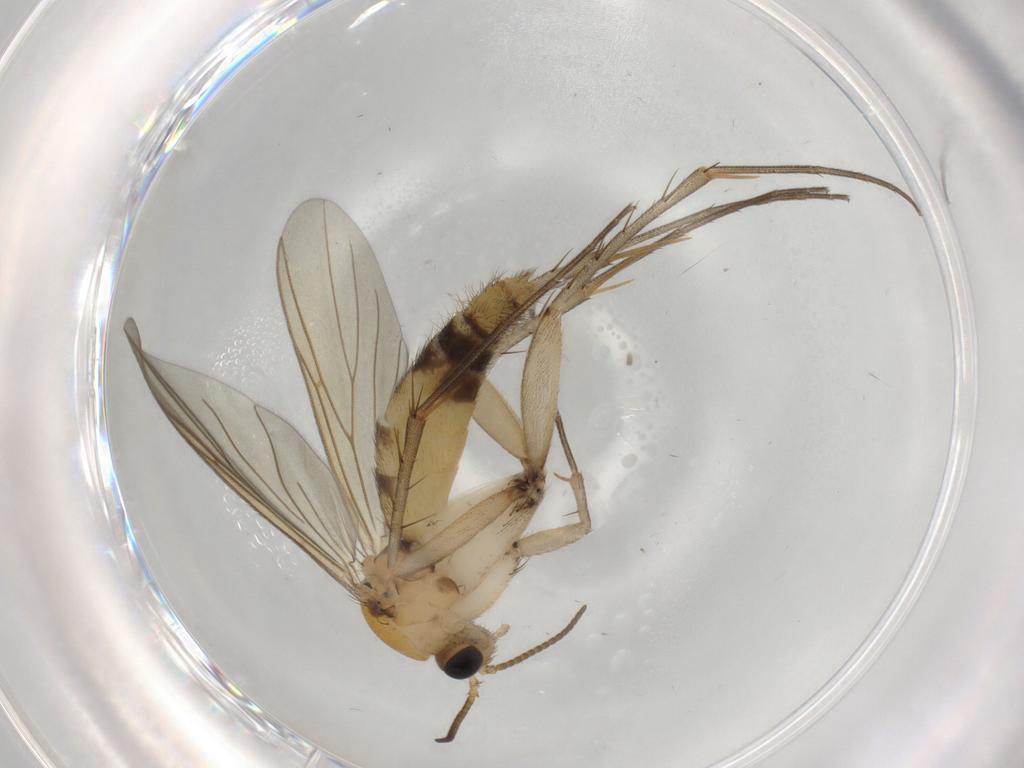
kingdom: Animalia
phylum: Arthropoda
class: Insecta
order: Diptera
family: Mycetophilidae
